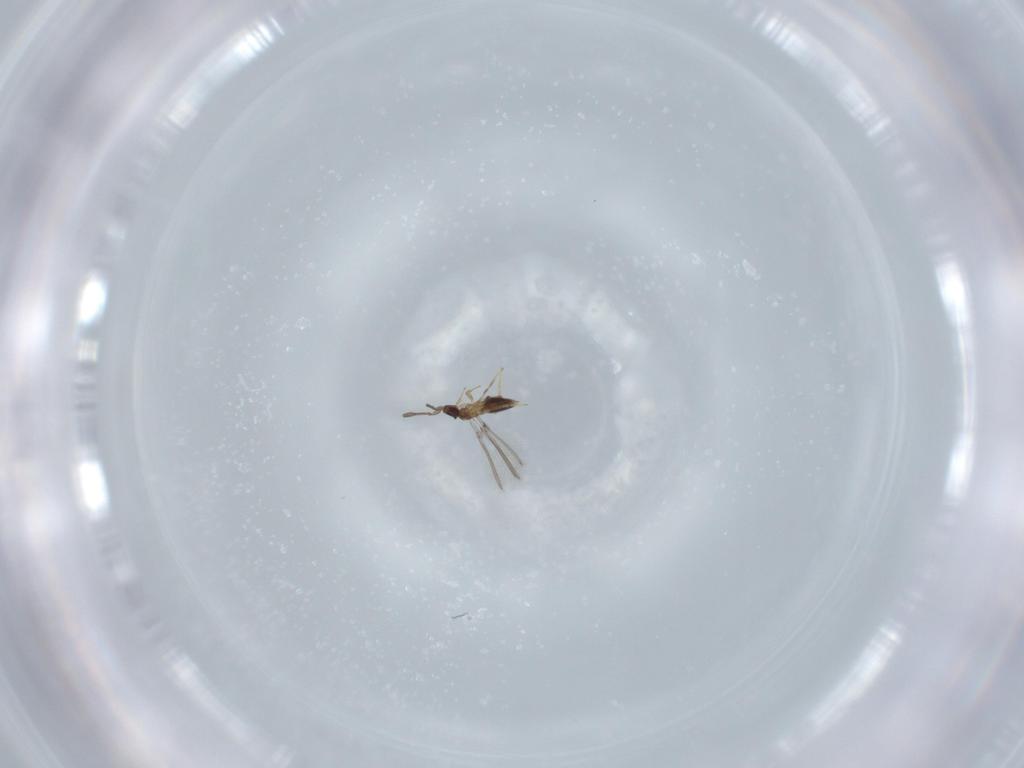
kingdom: Animalia
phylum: Arthropoda
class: Insecta
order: Hymenoptera
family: Mymaridae
